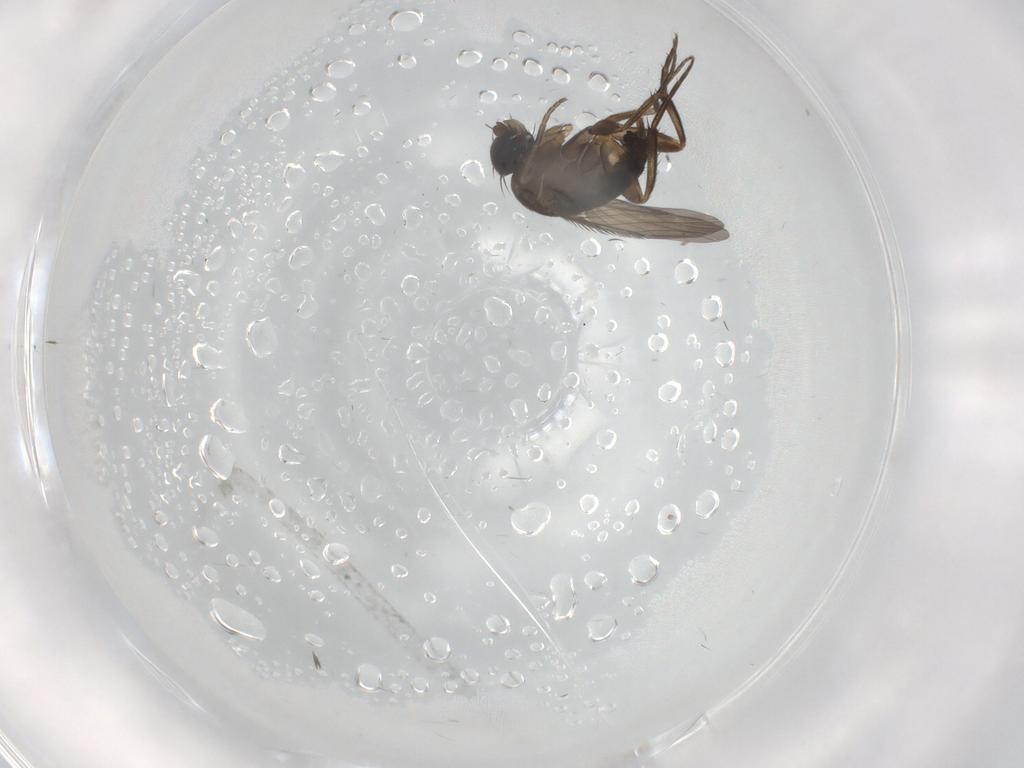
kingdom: Animalia
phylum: Arthropoda
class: Insecta
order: Diptera
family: Phoridae
